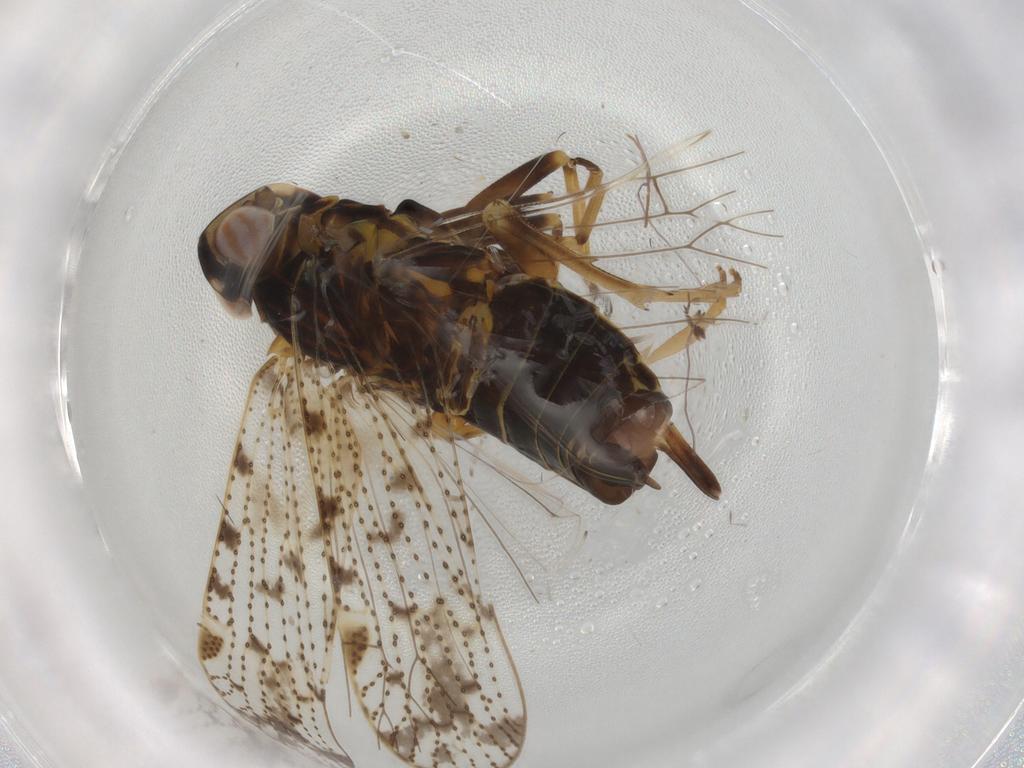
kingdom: Animalia
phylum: Arthropoda
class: Insecta
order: Hemiptera
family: Cixiidae
